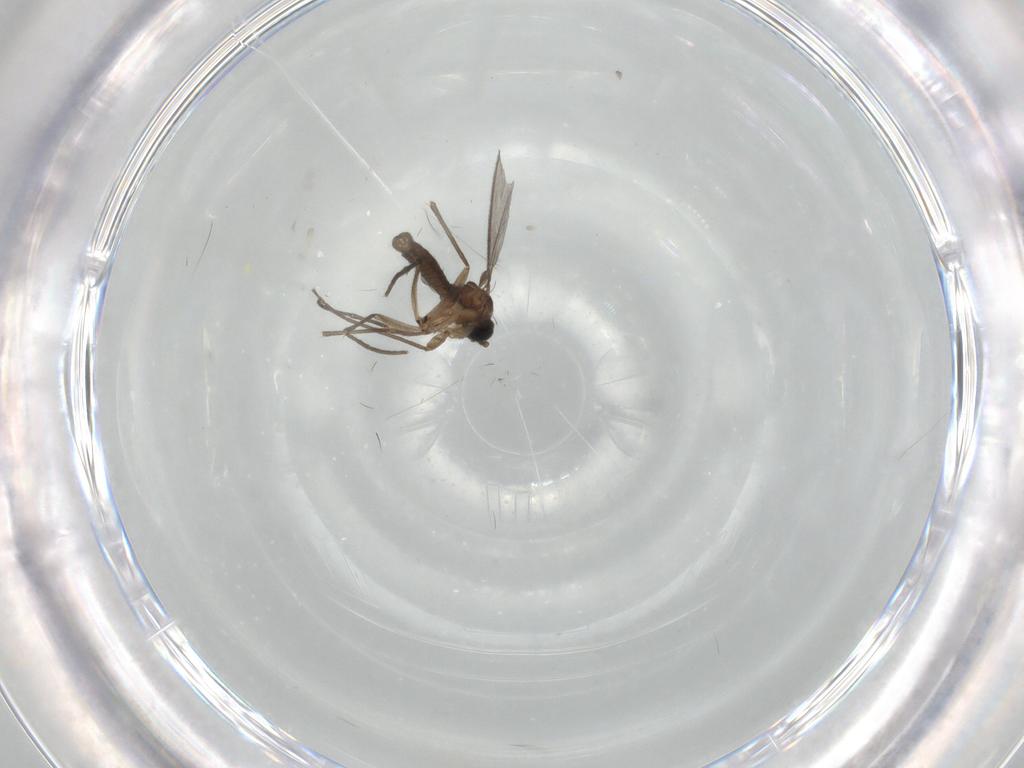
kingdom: Animalia
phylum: Arthropoda
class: Insecta
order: Diptera
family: Sciaridae
